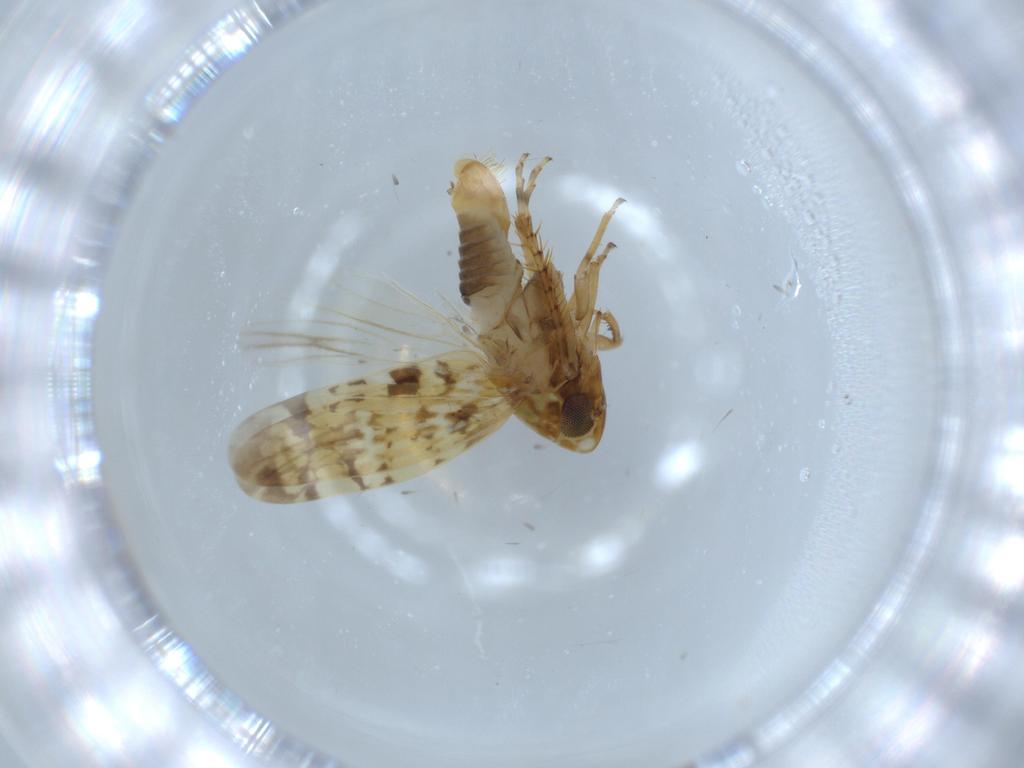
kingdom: Animalia
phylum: Arthropoda
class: Insecta
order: Hemiptera
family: Cicadellidae
